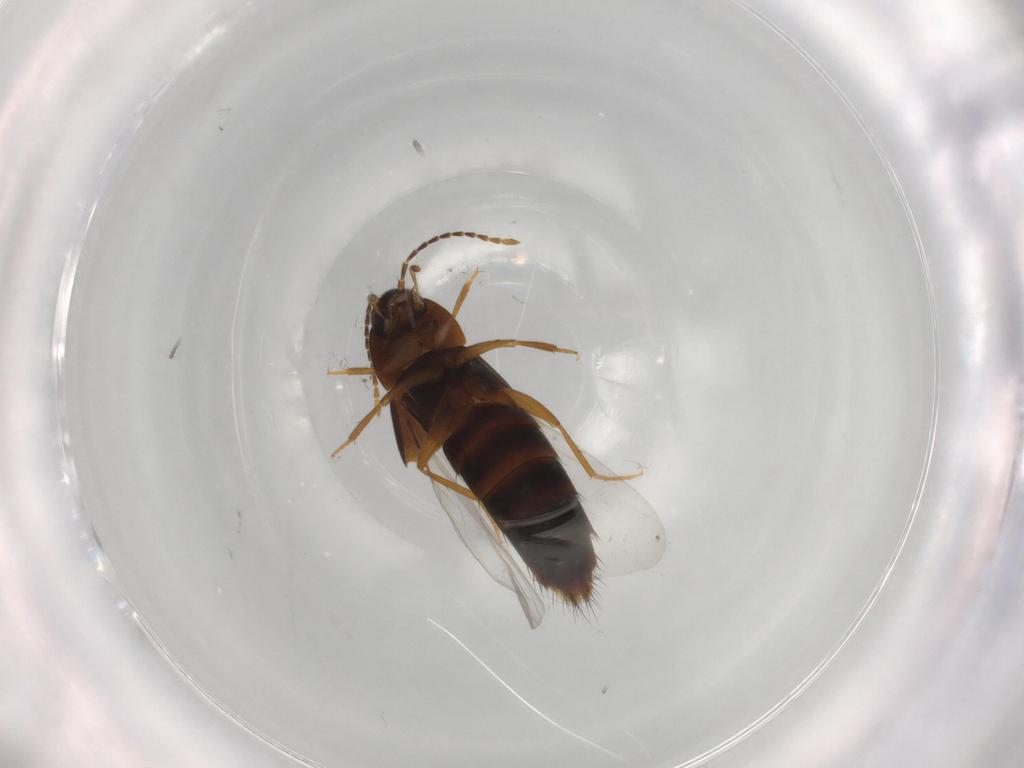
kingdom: Animalia
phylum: Arthropoda
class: Insecta
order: Coleoptera
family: Staphylinidae
